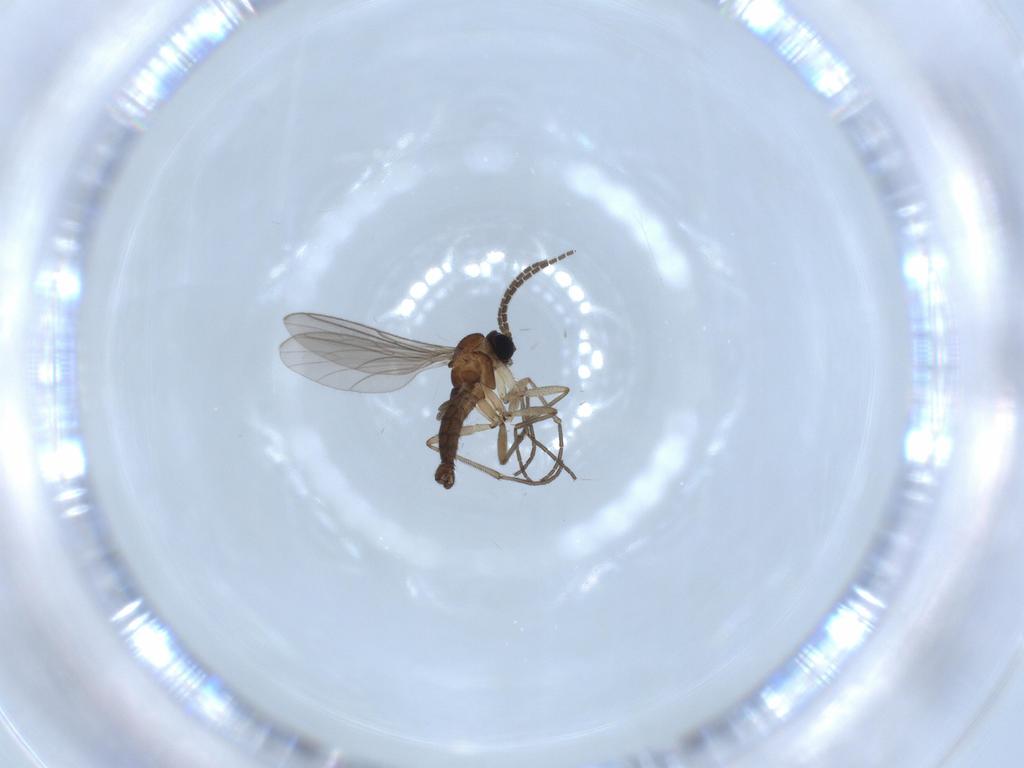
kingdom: Animalia
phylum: Arthropoda
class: Insecta
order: Diptera
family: Sciaridae
